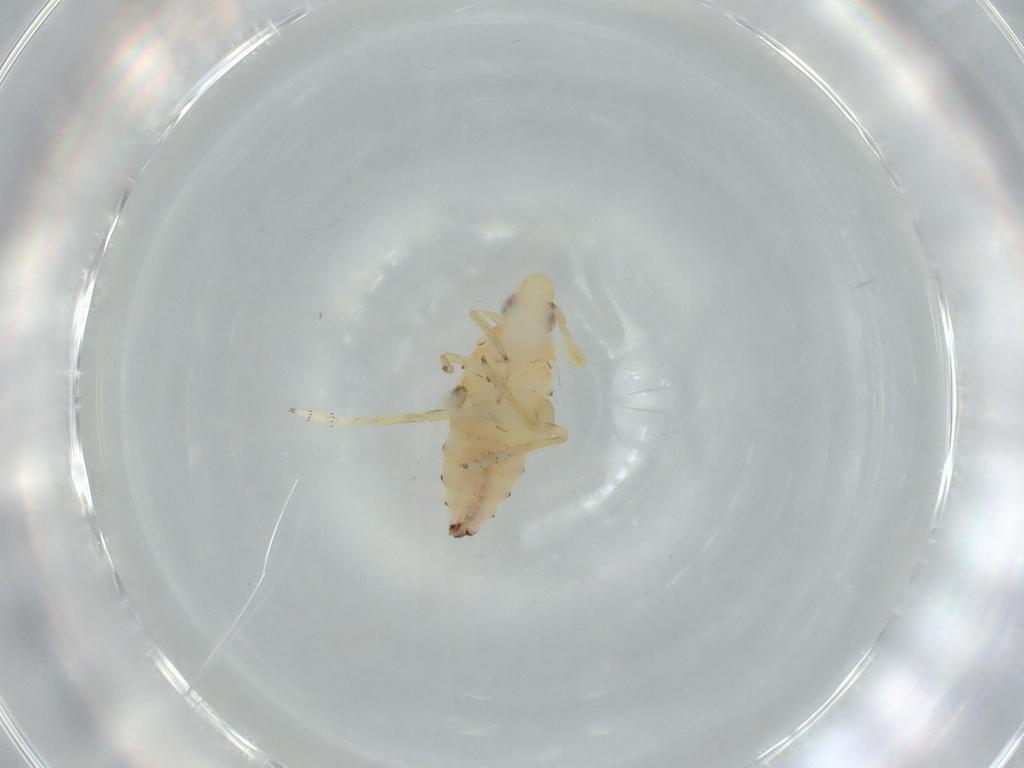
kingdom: Animalia
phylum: Arthropoda
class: Insecta
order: Hemiptera
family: Tropiduchidae
